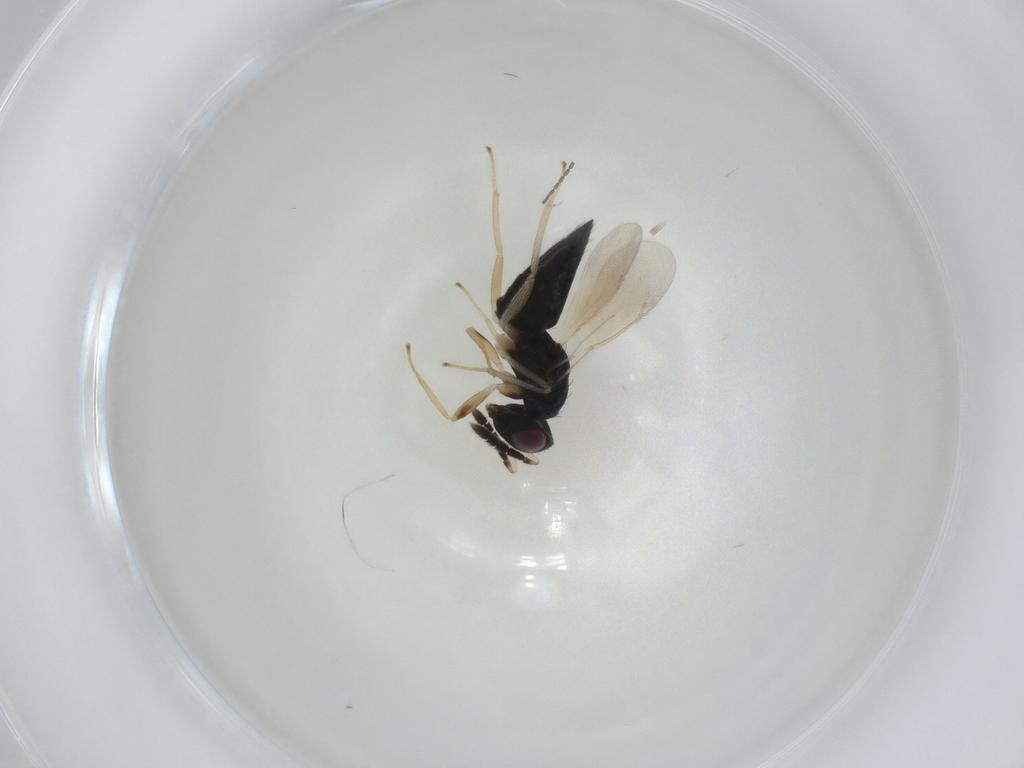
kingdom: Animalia
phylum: Arthropoda
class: Insecta
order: Hymenoptera
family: Eulophidae
